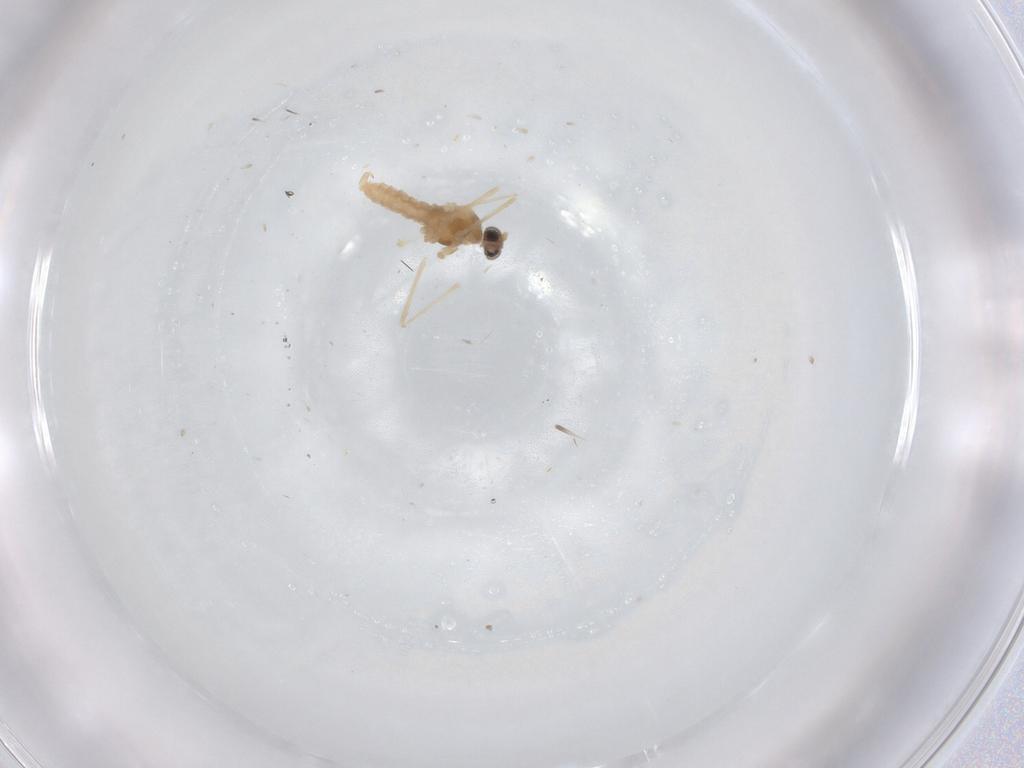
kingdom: Animalia
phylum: Arthropoda
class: Insecta
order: Diptera
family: Cecidomyiidae
